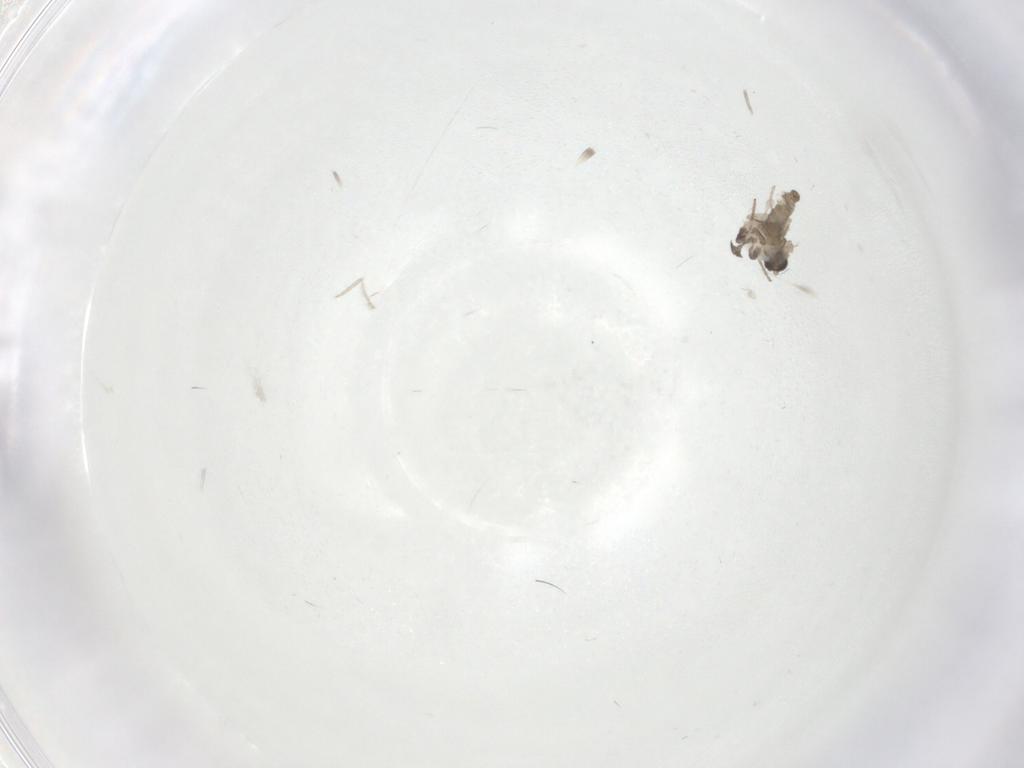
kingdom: Animalia
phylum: Arthropoda
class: Insecta
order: Diptera
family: Cecidomyiidae
